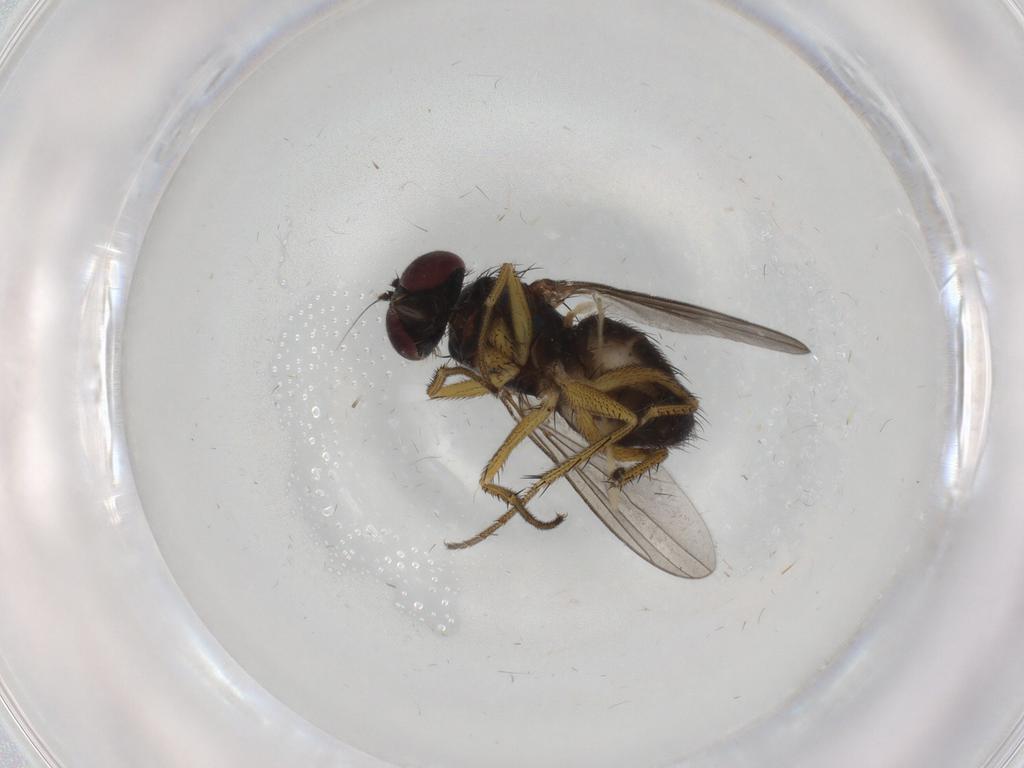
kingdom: Animalia
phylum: Arthropoda
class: Insecta
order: Diptera
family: Dolichopodidae
